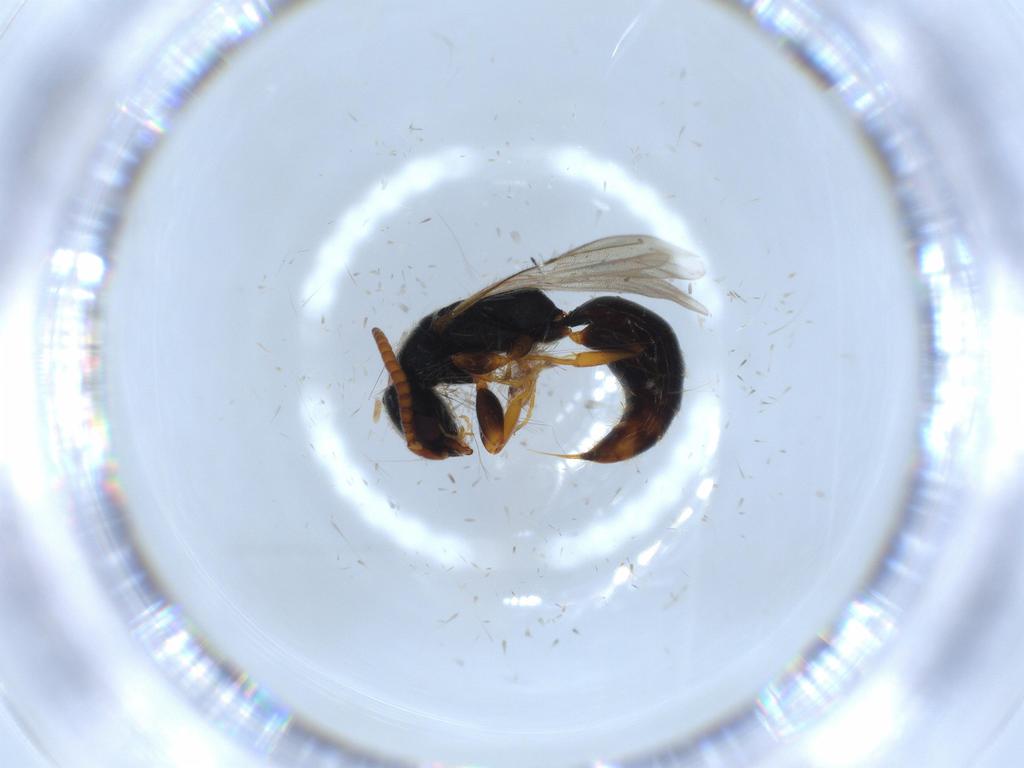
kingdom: Animalia
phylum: Arthropoda
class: Insecta
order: Hymenoptera
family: Bethylidae
